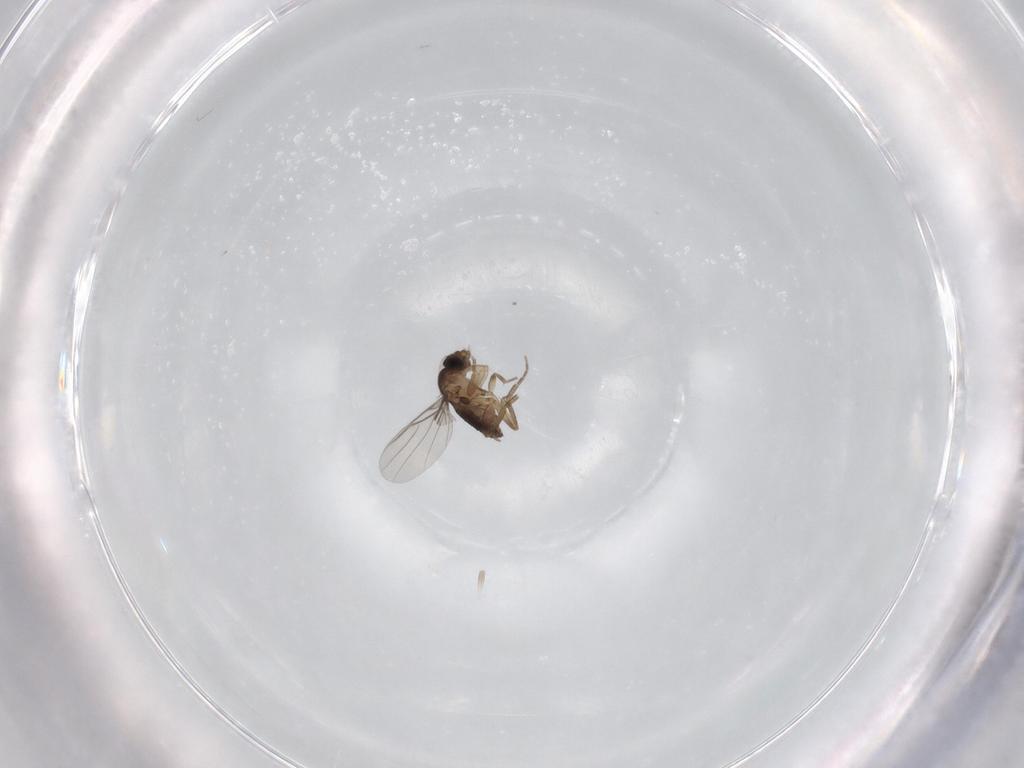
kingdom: Animalia
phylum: Arthropoda
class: Insecta
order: Diptera
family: Phoridae
